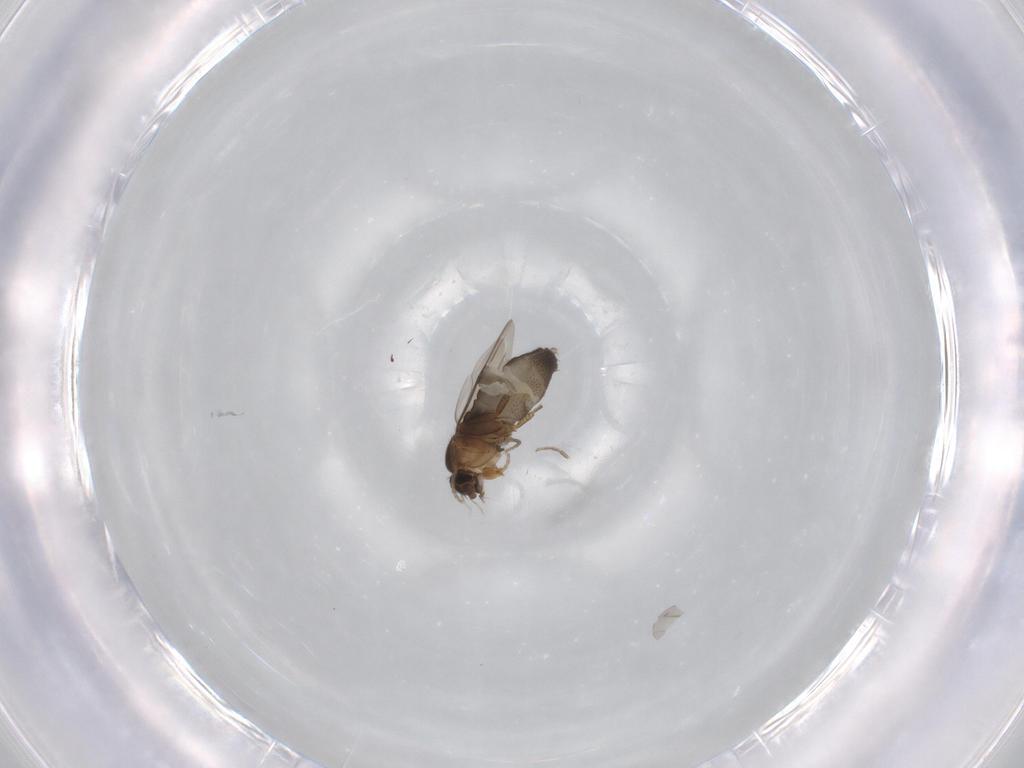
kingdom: Animalia
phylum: Arthropoda
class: Insecta
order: Diptera
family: Phoridae
